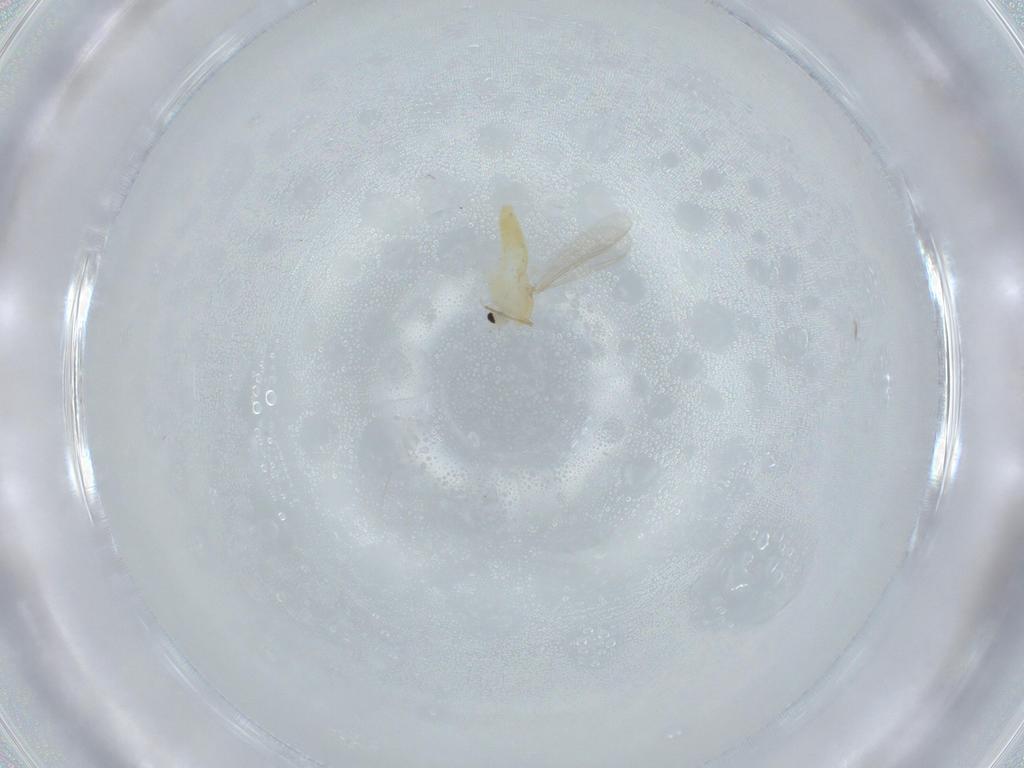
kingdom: Animalia
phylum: Arthropoda
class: Insecta
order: Diptera
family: Chironomidae
